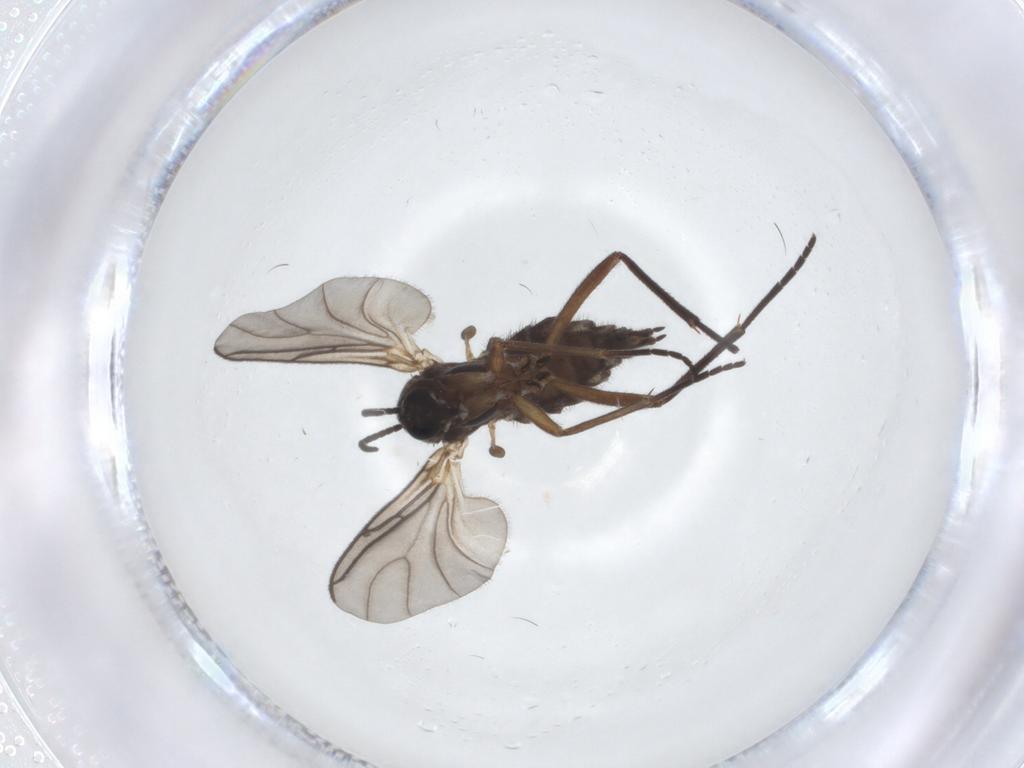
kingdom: Animalia
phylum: Arthropoda
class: Insecta
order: Diptera
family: Sciaridae
